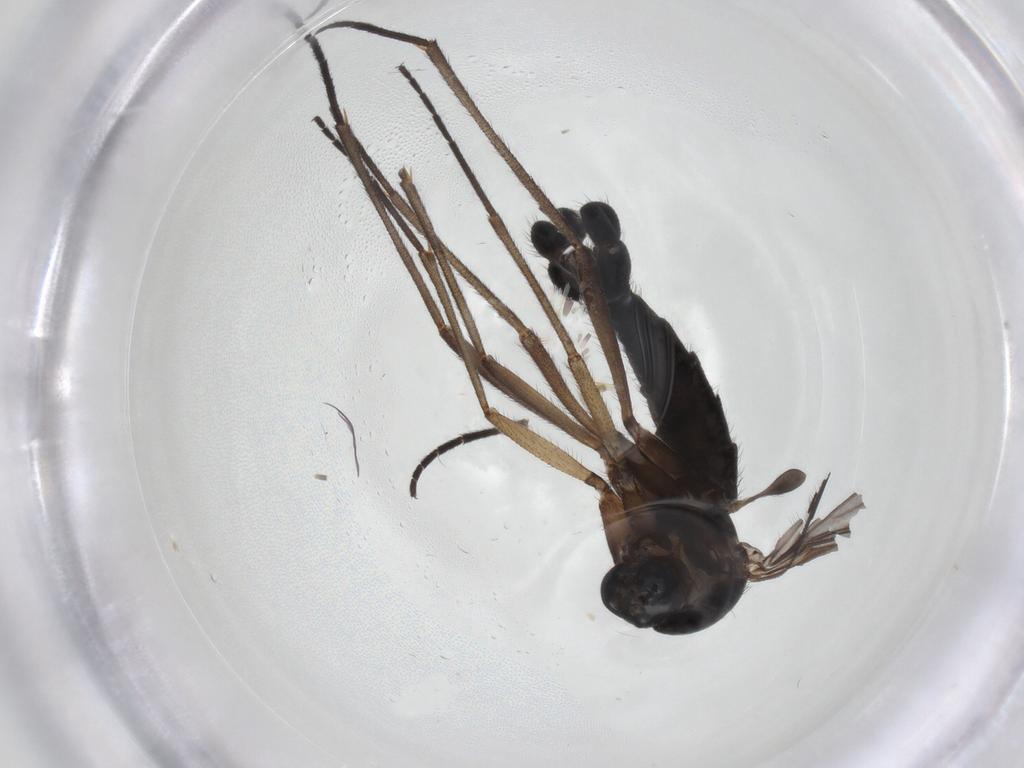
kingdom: Animalia
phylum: Arthropoda
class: Insecta
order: Diptera
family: Sciaridae
